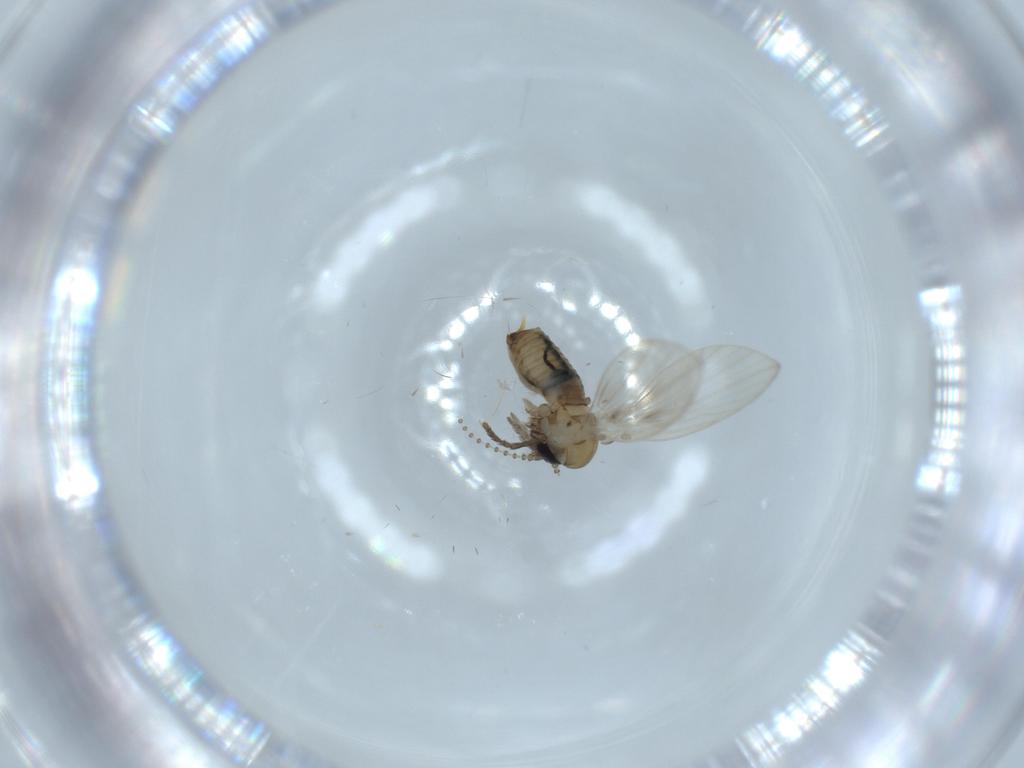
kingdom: Animalia
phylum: Arthropoda
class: Insecta
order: Diptera
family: Psychodidae
